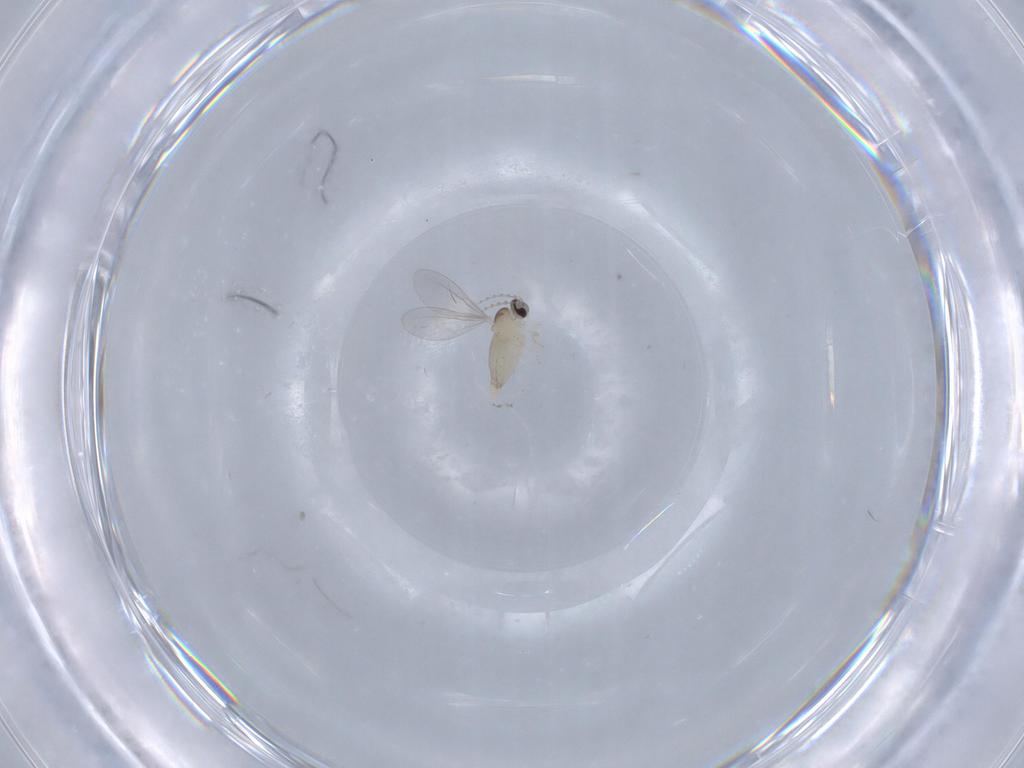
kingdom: Animalia
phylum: Arthropoda
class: Insecta
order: Diptera
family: Cecidomyiidae
